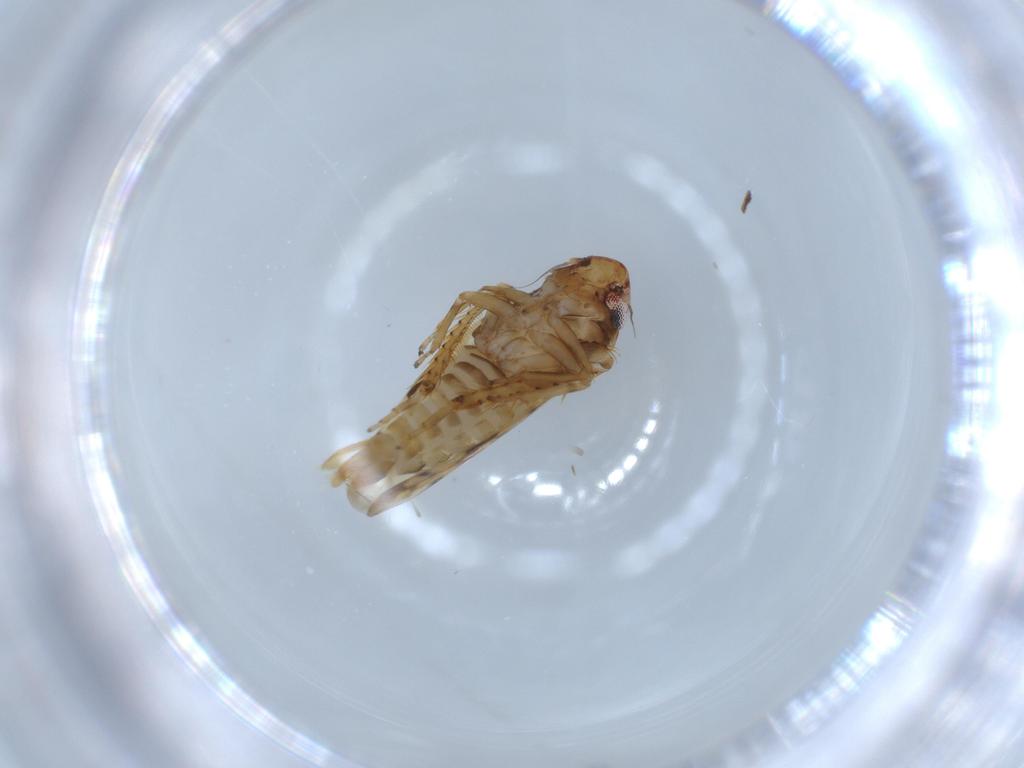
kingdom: Animalia
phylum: Arthropoda
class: Insecta
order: Hemiptera
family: Cicadellidae
